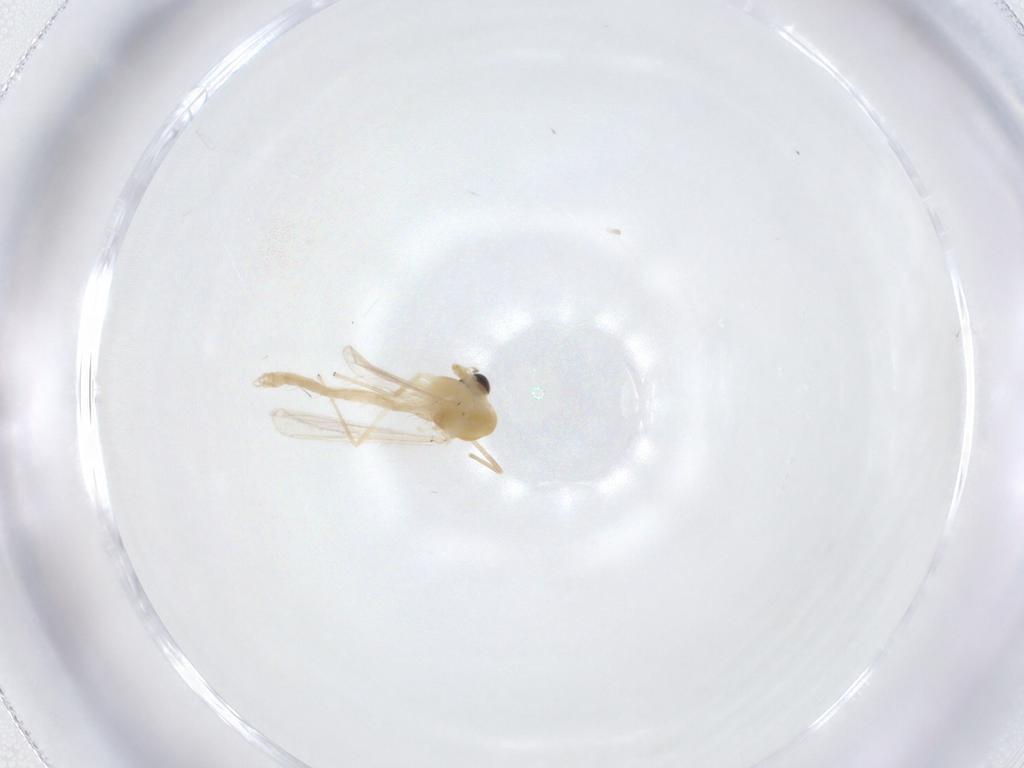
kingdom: Animalia
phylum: Arthropoda
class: Insecta
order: Diptera
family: Chironomidae
